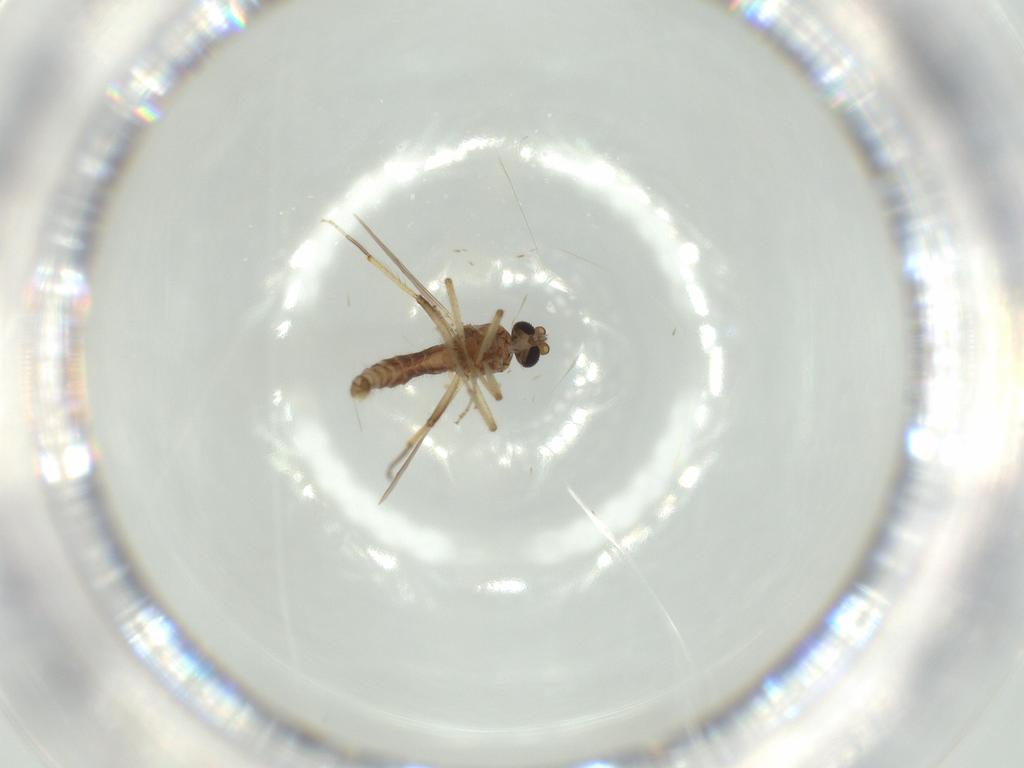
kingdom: Animalia
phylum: Arthropoda
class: Insecta
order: Diptera
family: Ceratopogonidae
